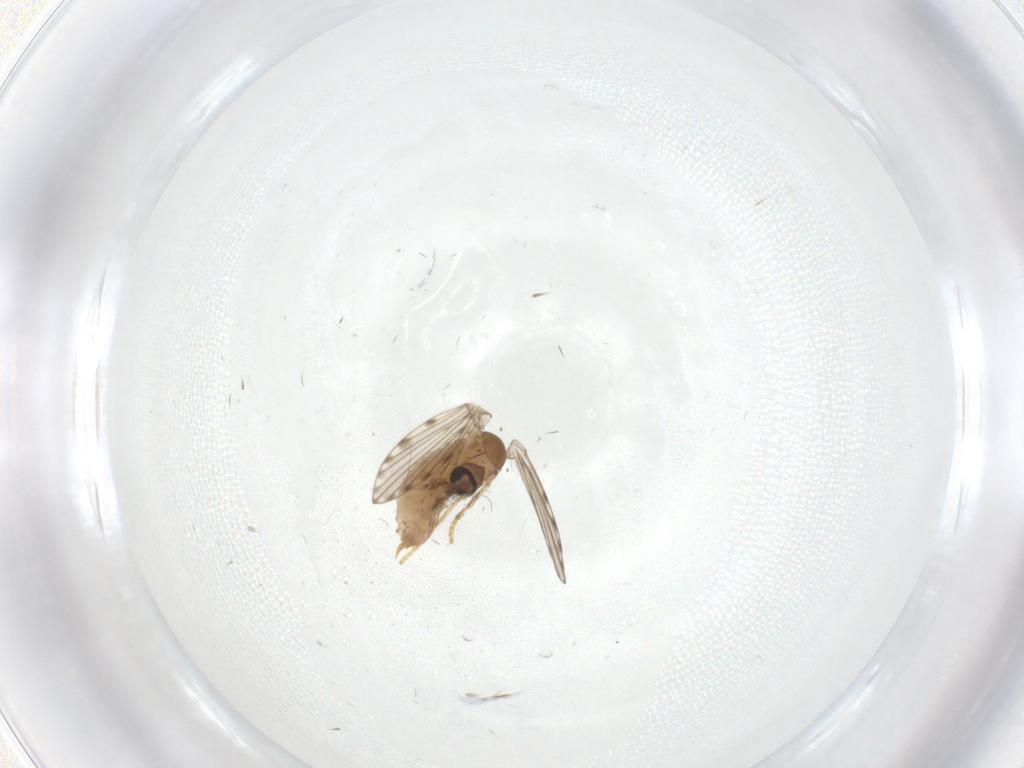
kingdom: Animalia
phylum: Arthropoda
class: Insecta
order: Diptera
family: Psychodidae
